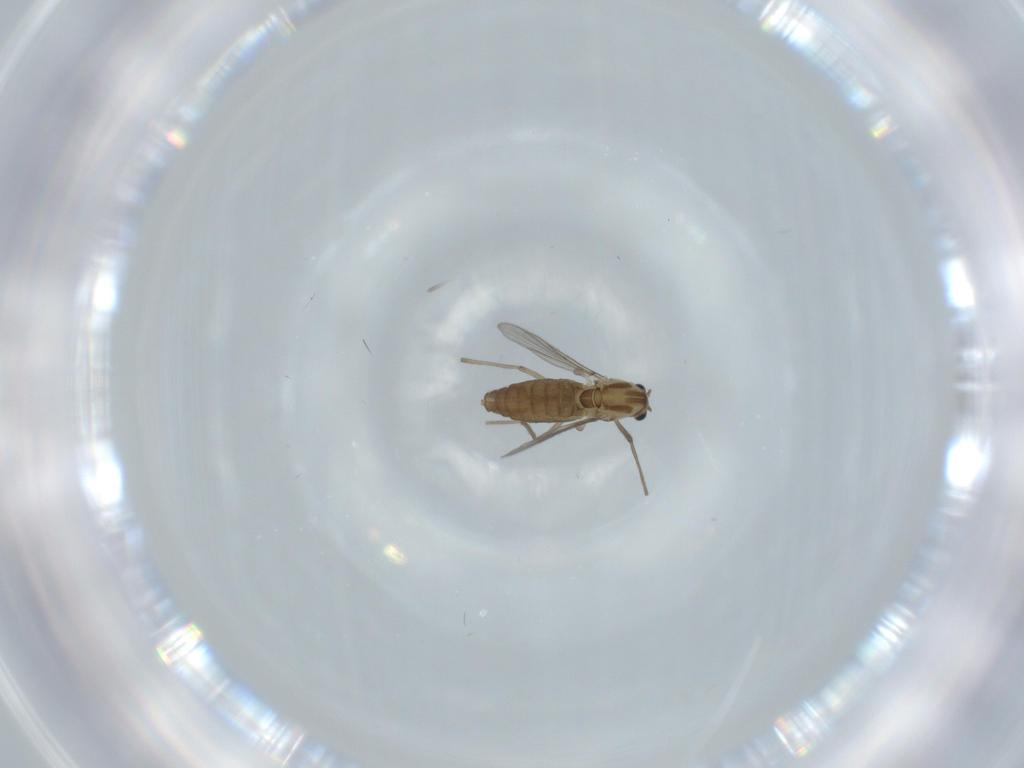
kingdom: Animalia
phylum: Arthropoda
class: Insecta
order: Diptera
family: Chironomidae
